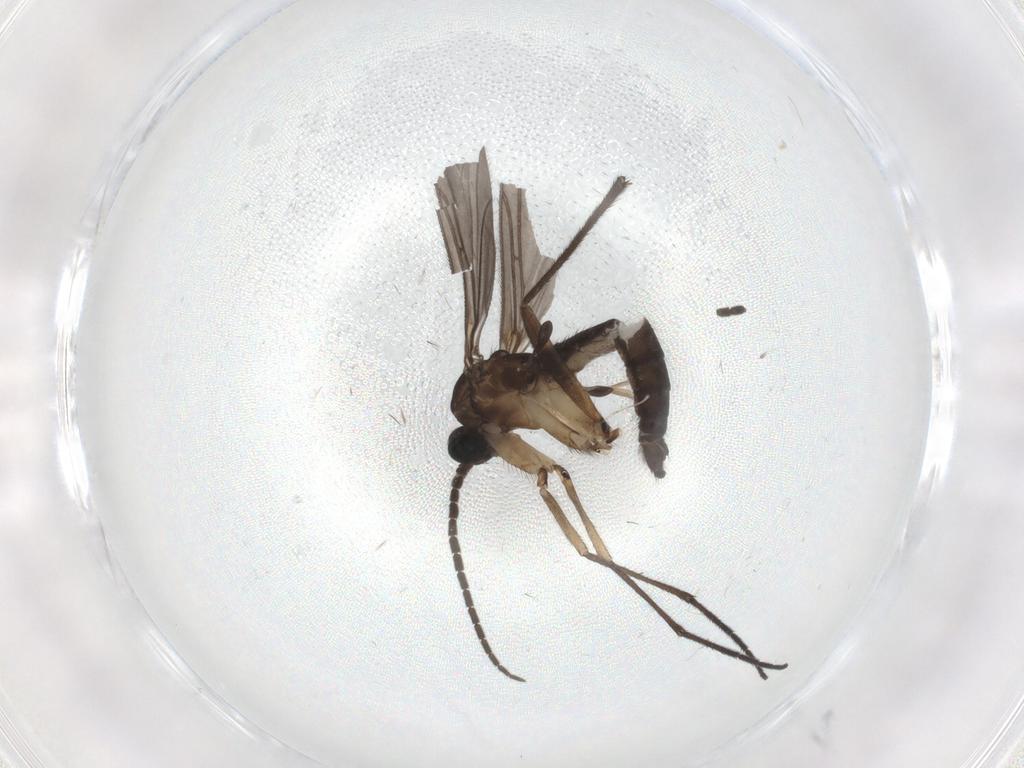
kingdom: Animalia
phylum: Arthropoda
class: Insecta
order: Diptera
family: Sciaridae
